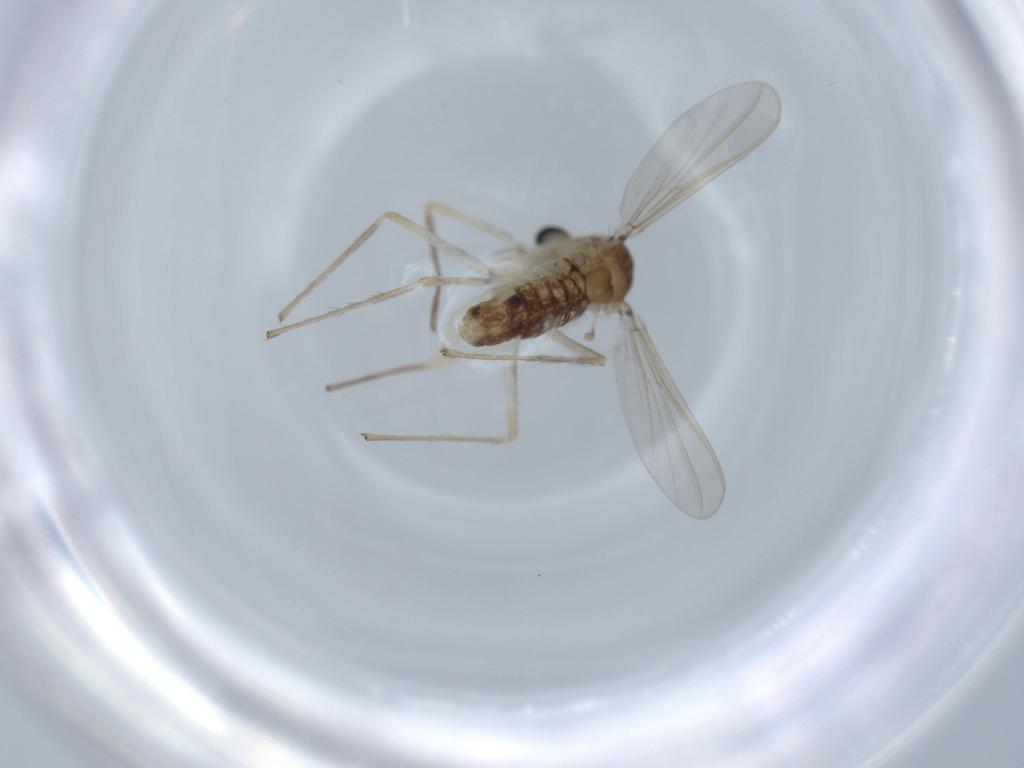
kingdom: Animalia
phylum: Arthropoda
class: Insecta
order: Diptera
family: Sciaridae
